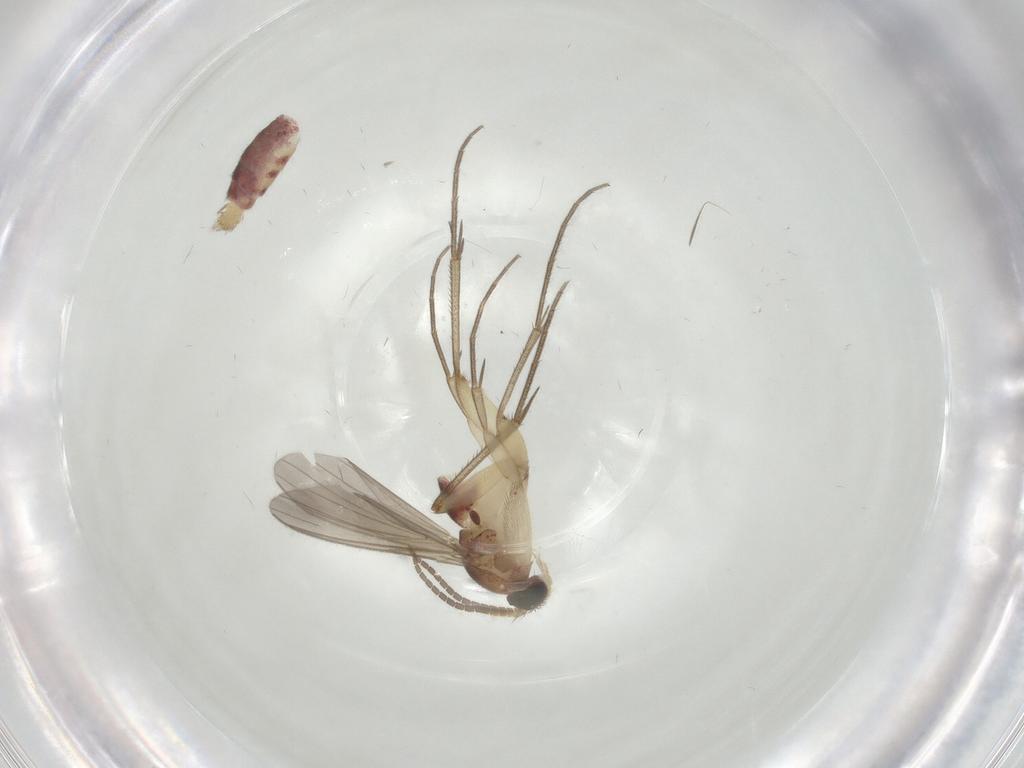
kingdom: Animalia
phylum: Arthropoda
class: Insecta
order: Diptera
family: Mycetophilidae
